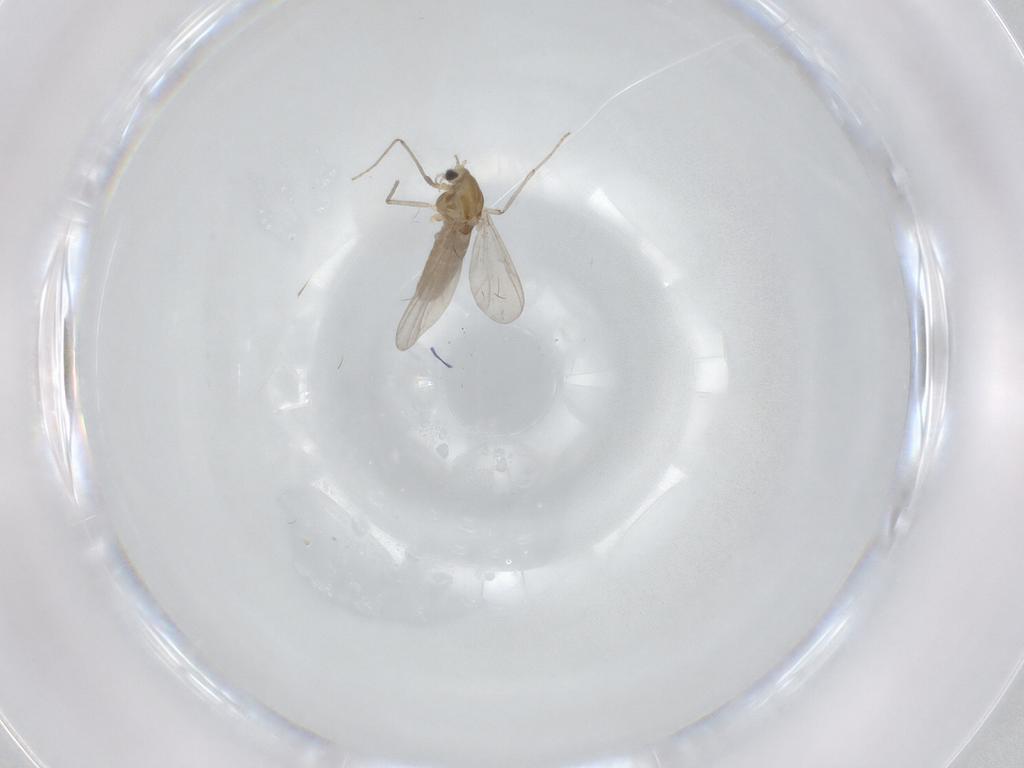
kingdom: Animalia
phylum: Arthropoda
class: Insecta
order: Diptera
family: Chironomidae
